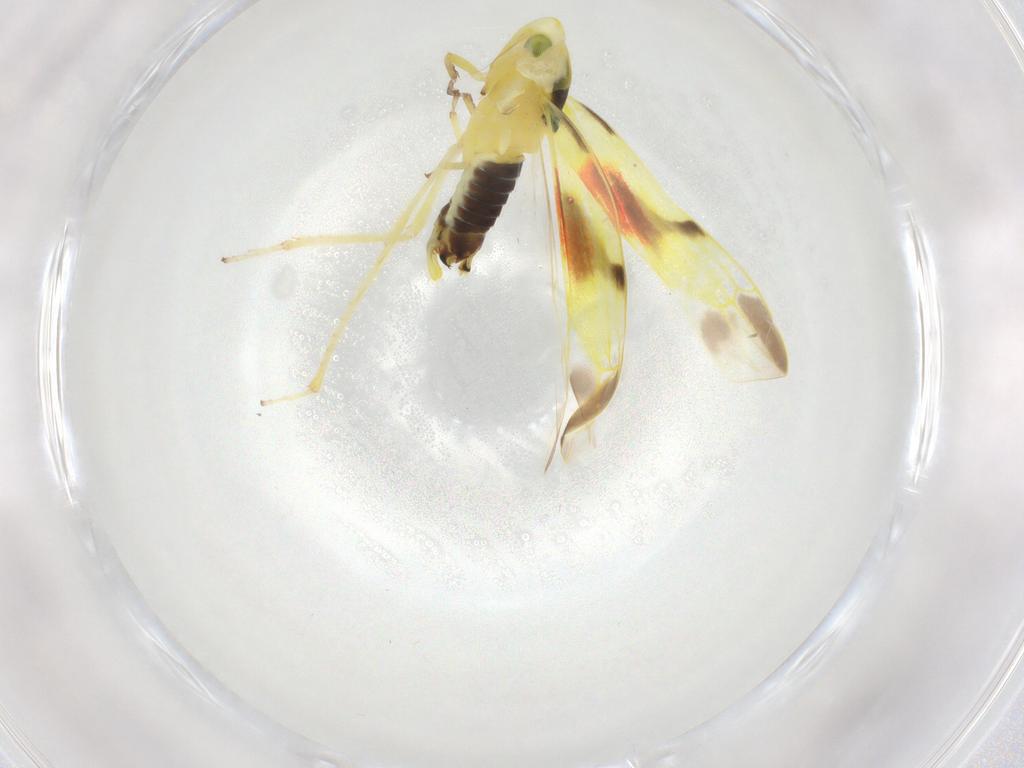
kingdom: Animalia
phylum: Arthropoda
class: Insecta
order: Hemiptera
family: Cicadellidae
